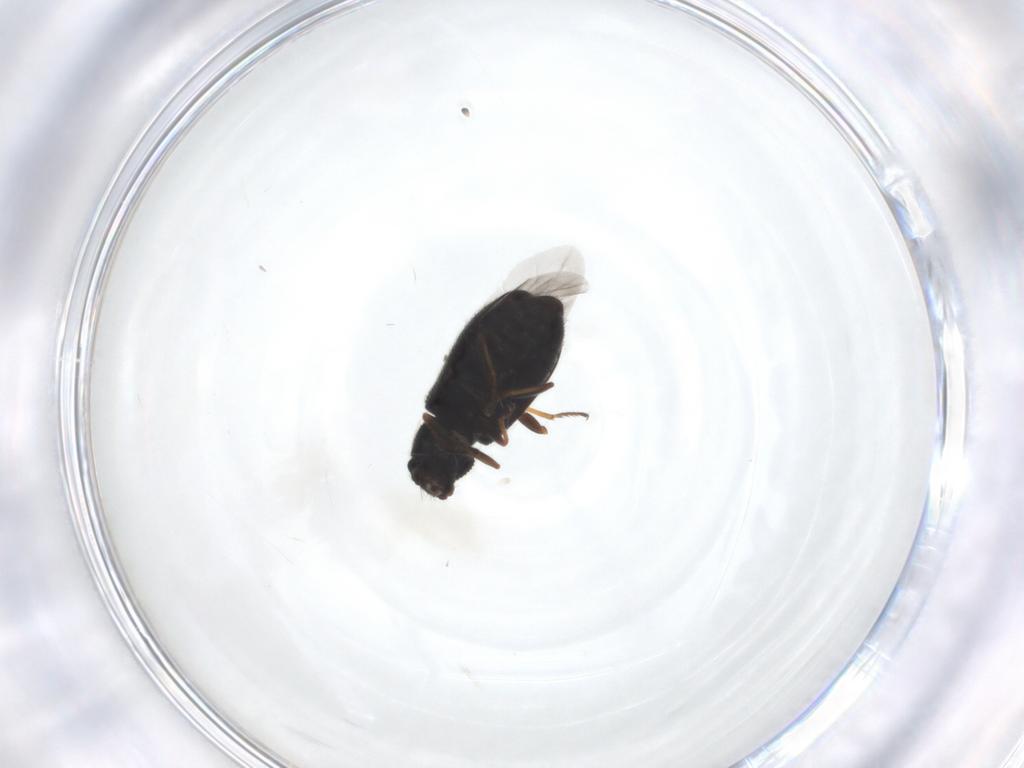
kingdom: Animalia
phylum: Arthropoda
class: Insecta
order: Coleoptera
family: Melyridae
